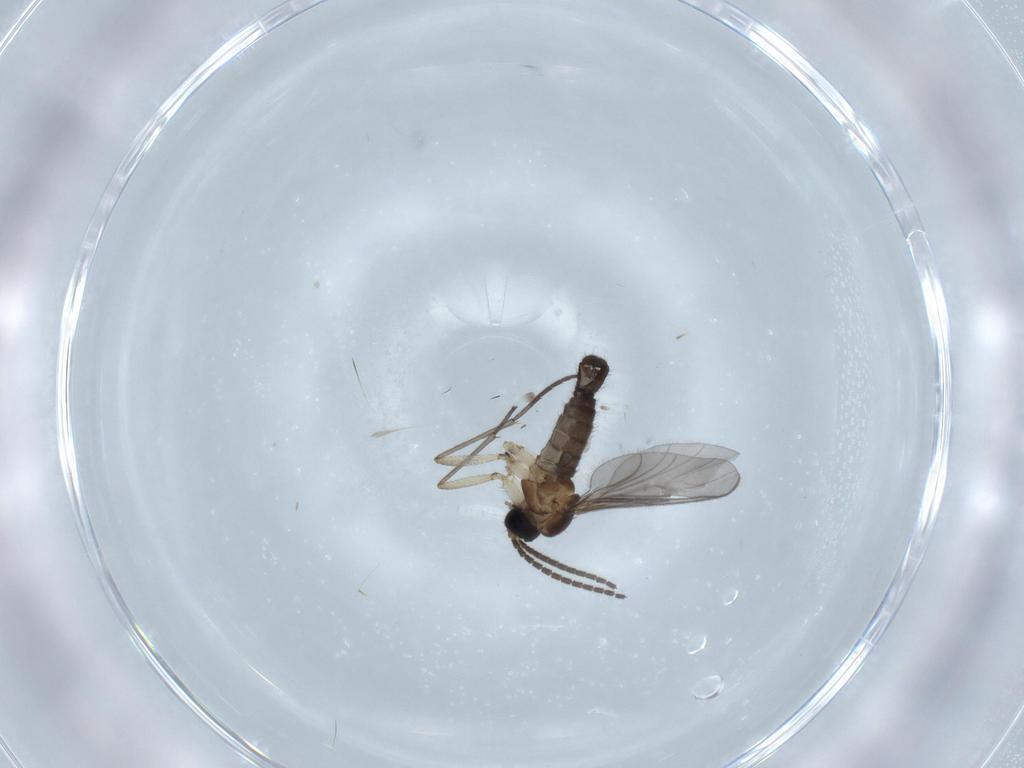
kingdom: Animalia
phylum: Arthropoda
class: Insecta
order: Diptera
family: Sciaridae
